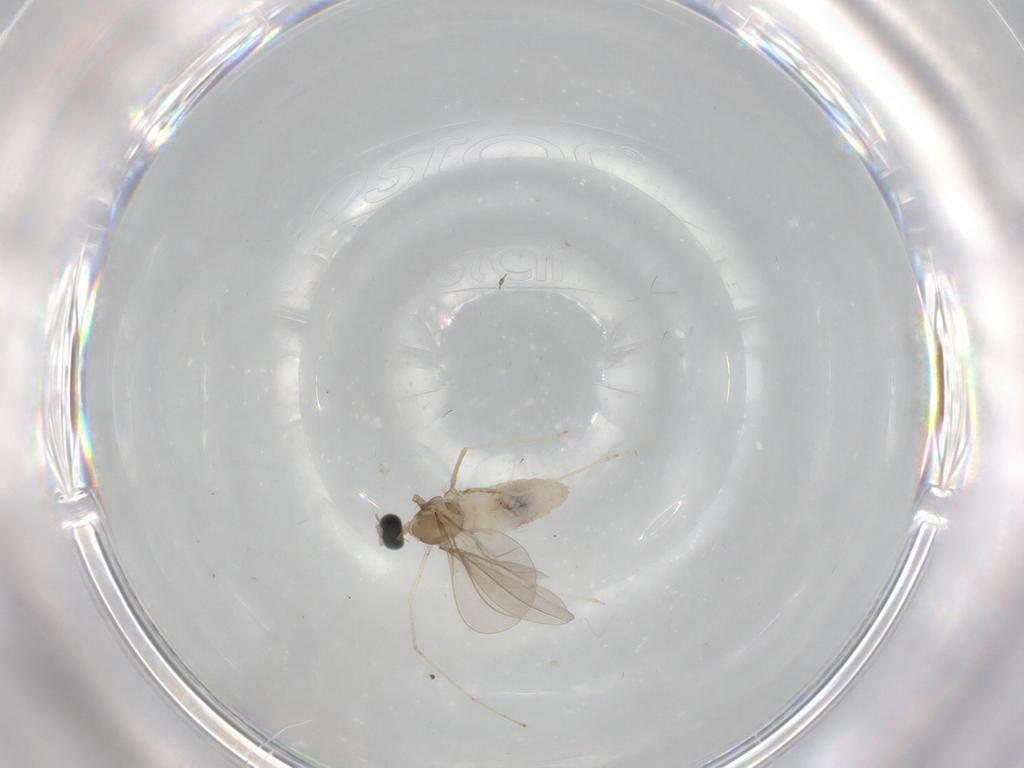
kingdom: Animalia
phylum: Arthropoda
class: Insecta
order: Diptera
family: Cecidomyiidae
